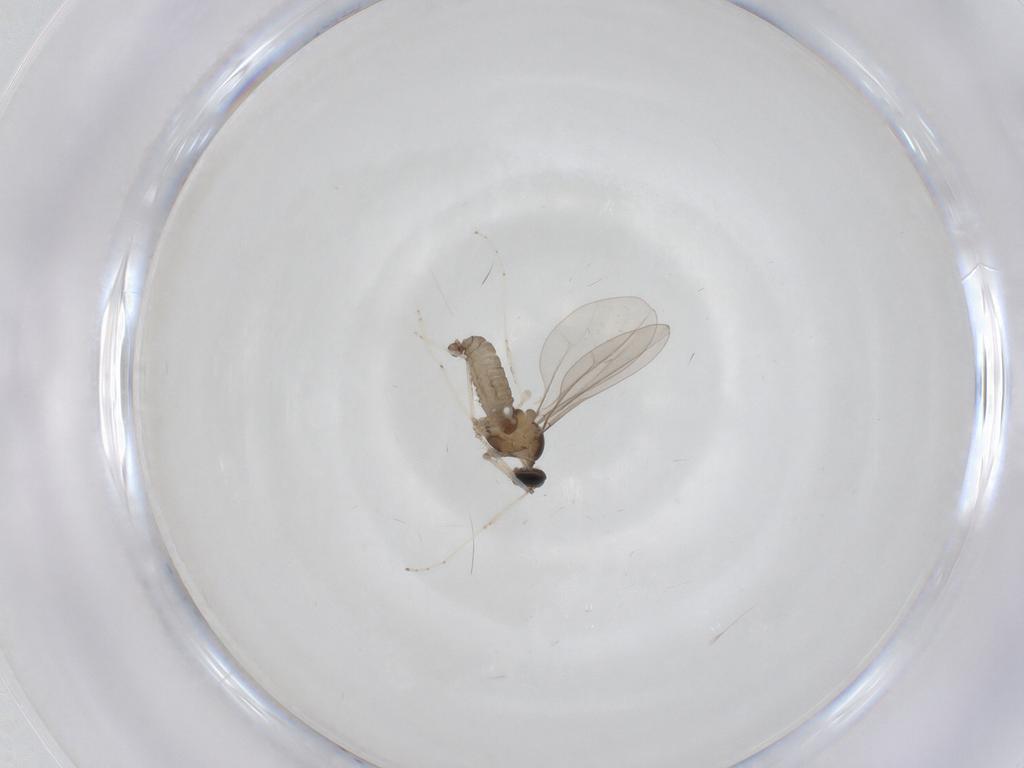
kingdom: Animalia
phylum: Arthropoda
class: Insecta
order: Diptera
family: Cecidomyiidae
